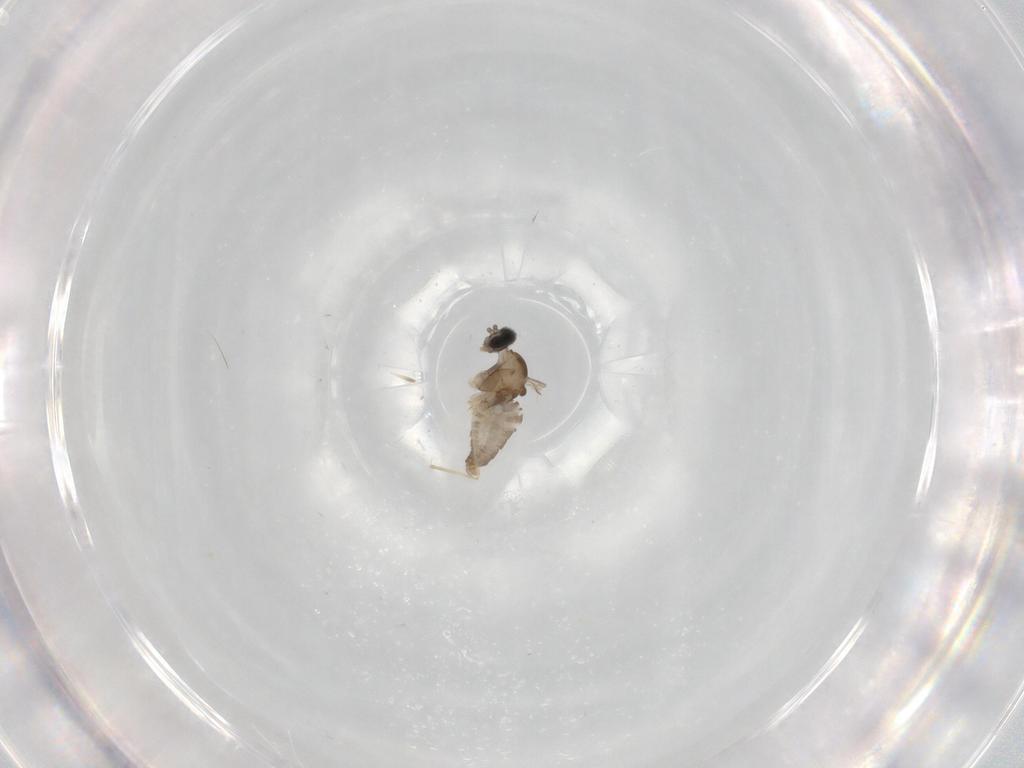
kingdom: Animalia
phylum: Arthropoda
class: Insecta
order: Diptera
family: Cecidomyiidae
